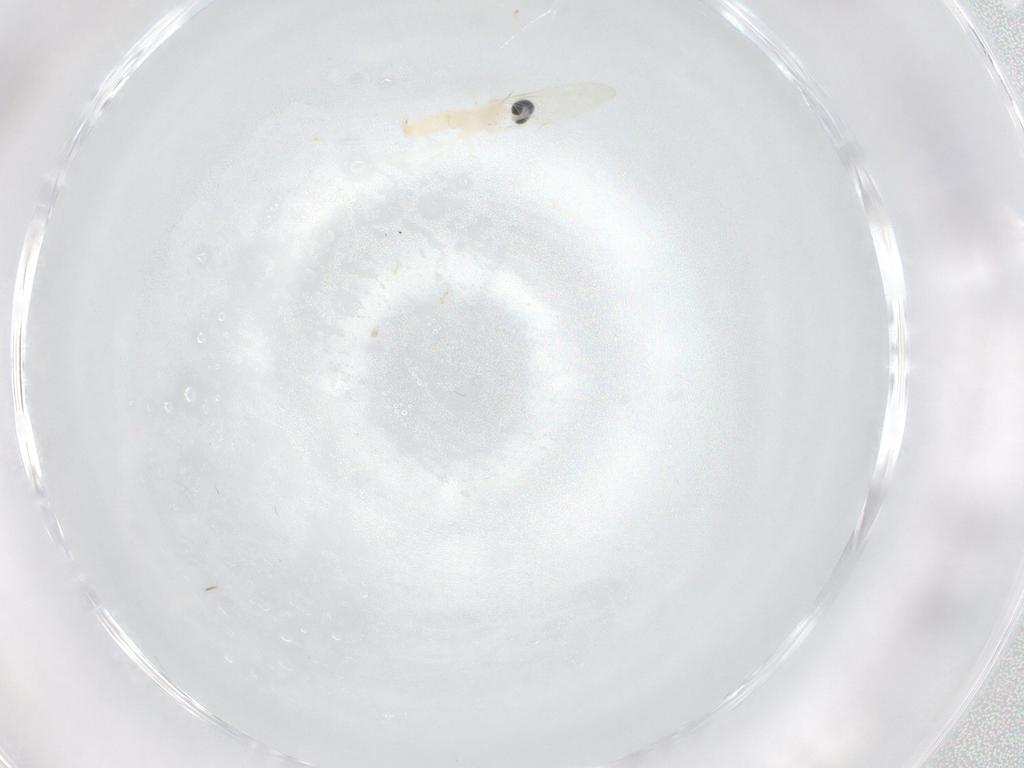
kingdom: Animalia
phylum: Arthropoda
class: Insecta
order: Diptera
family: Cecidomyiidae
